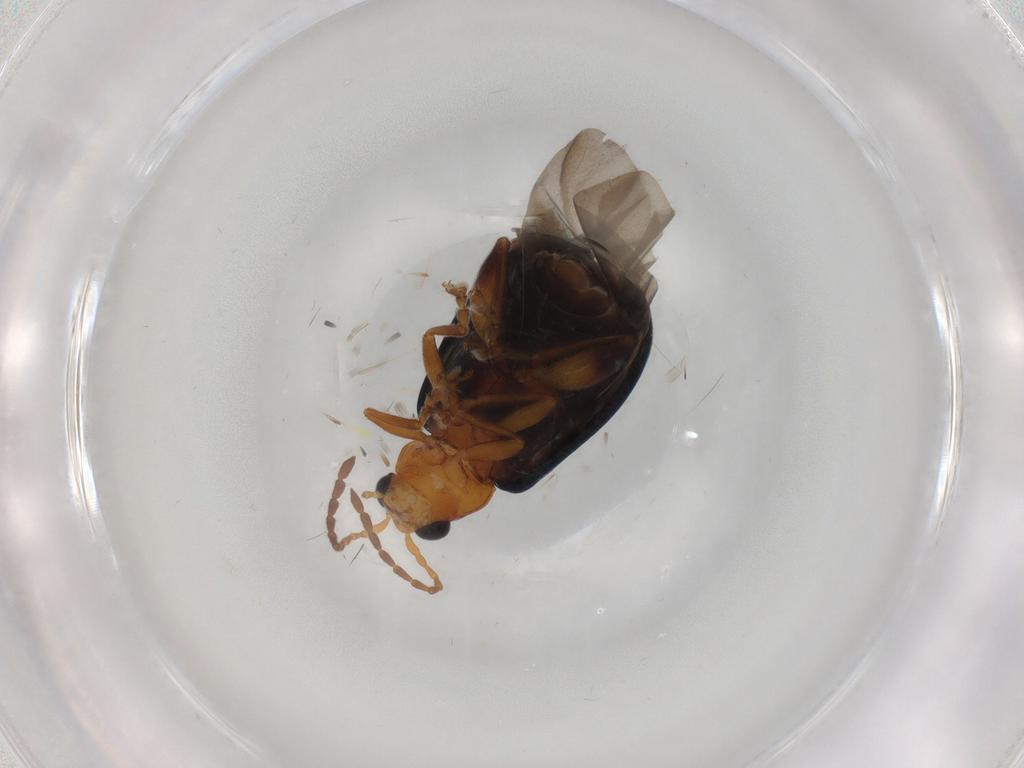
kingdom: Animalia
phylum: Arthropoda
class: Insecta
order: Coleoptera
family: Chrysomelidae
